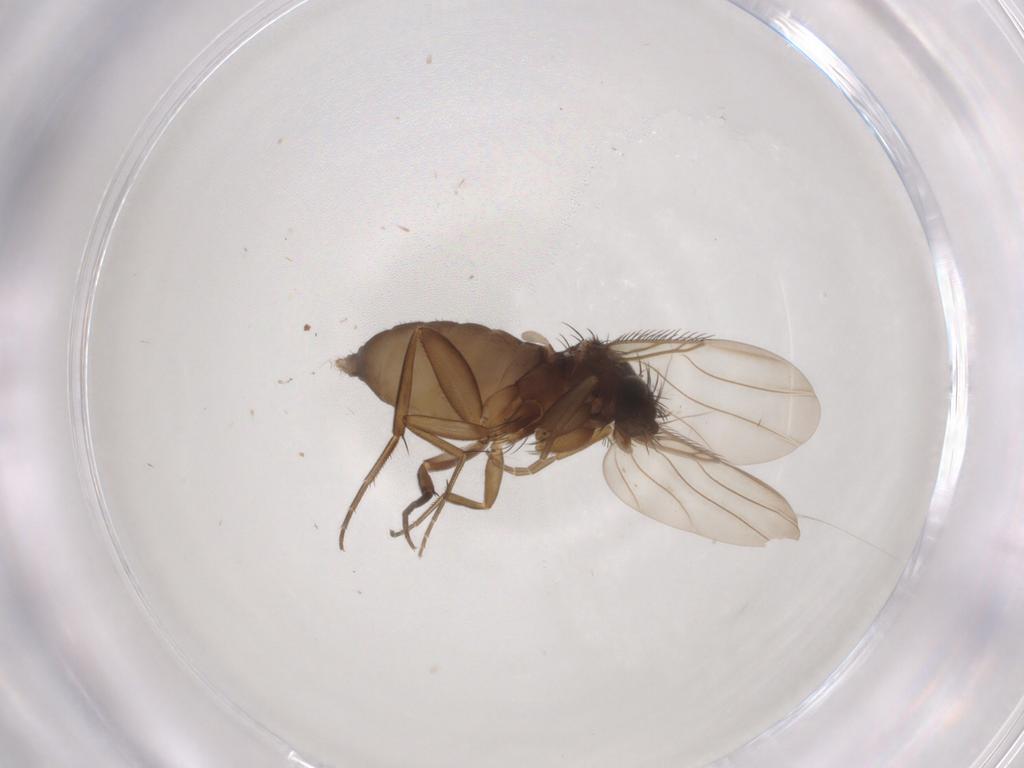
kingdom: Animalia
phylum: Arthropoda
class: Insecta
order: Diptera
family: Phoridae
